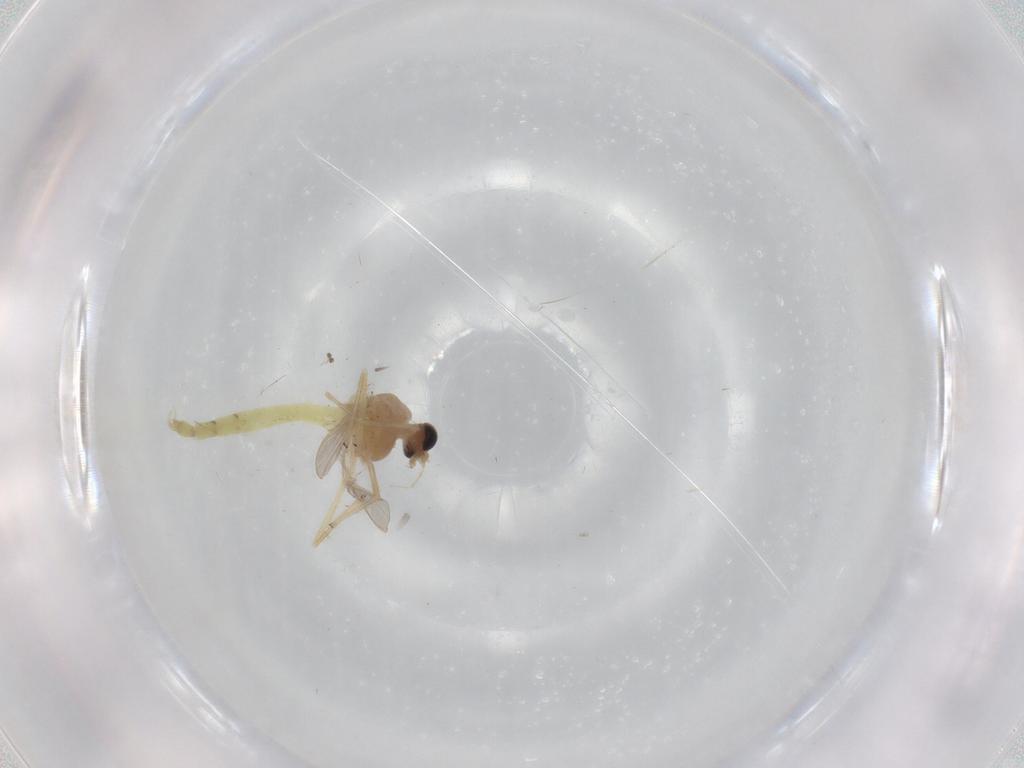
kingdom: Animalia
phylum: Arthropoda
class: Insecta
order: Diptera
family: Chironomidae
